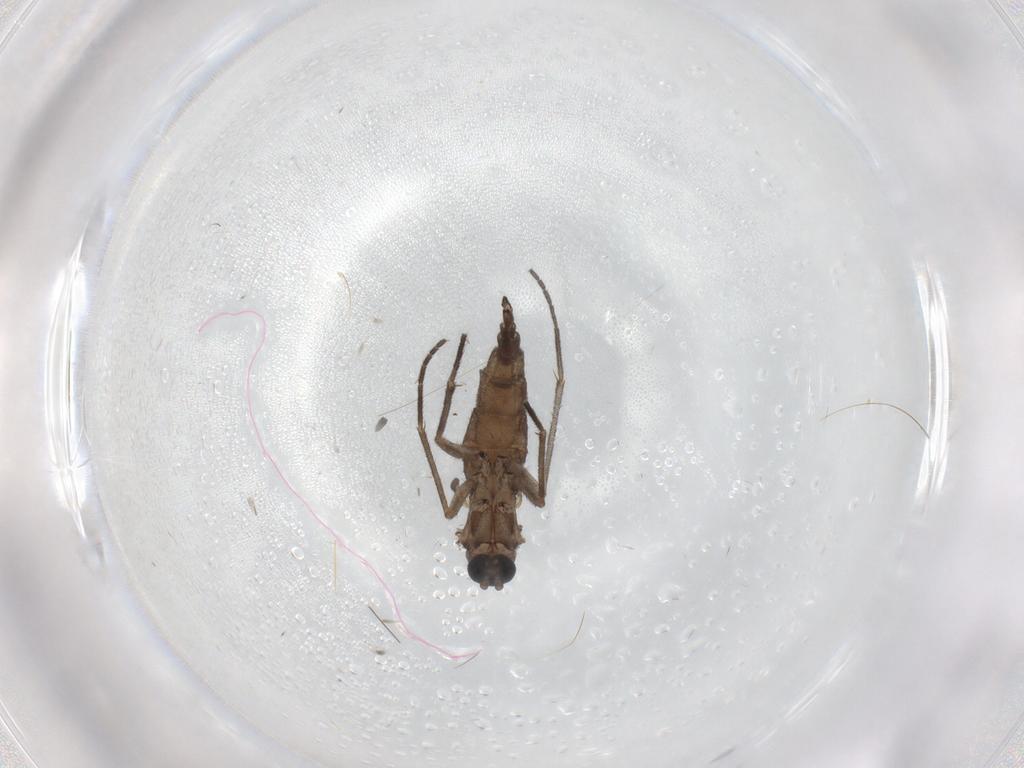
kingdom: Animalia
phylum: Arthropoda
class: Insecta
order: Diptera
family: Sciaridae
